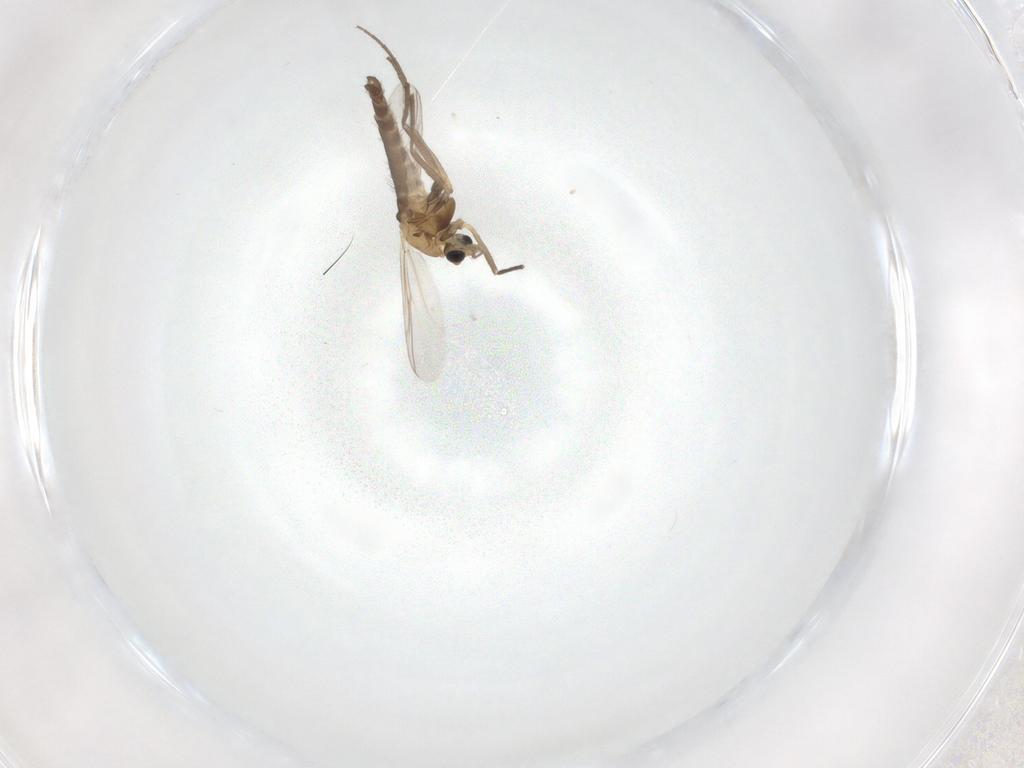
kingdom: Animalia
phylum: Arthropoda
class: Insecta
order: Diptera
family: Chironomidae
